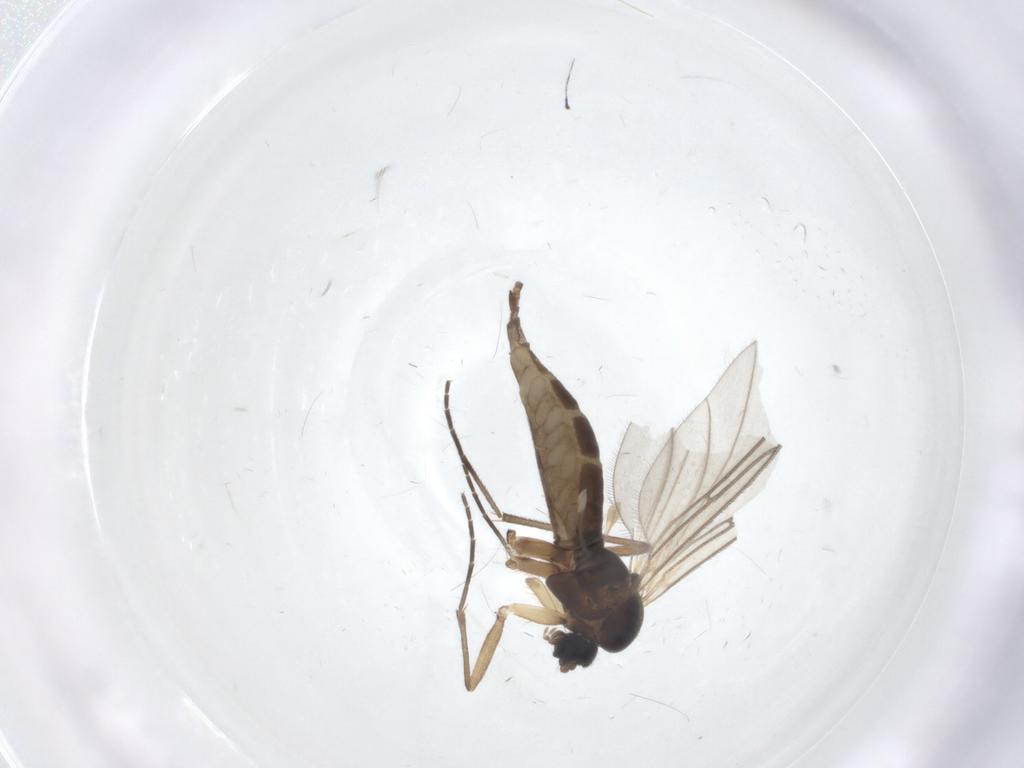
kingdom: Animalia
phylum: Arthropoda
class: Insecta
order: Diptera
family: Sciaridae
